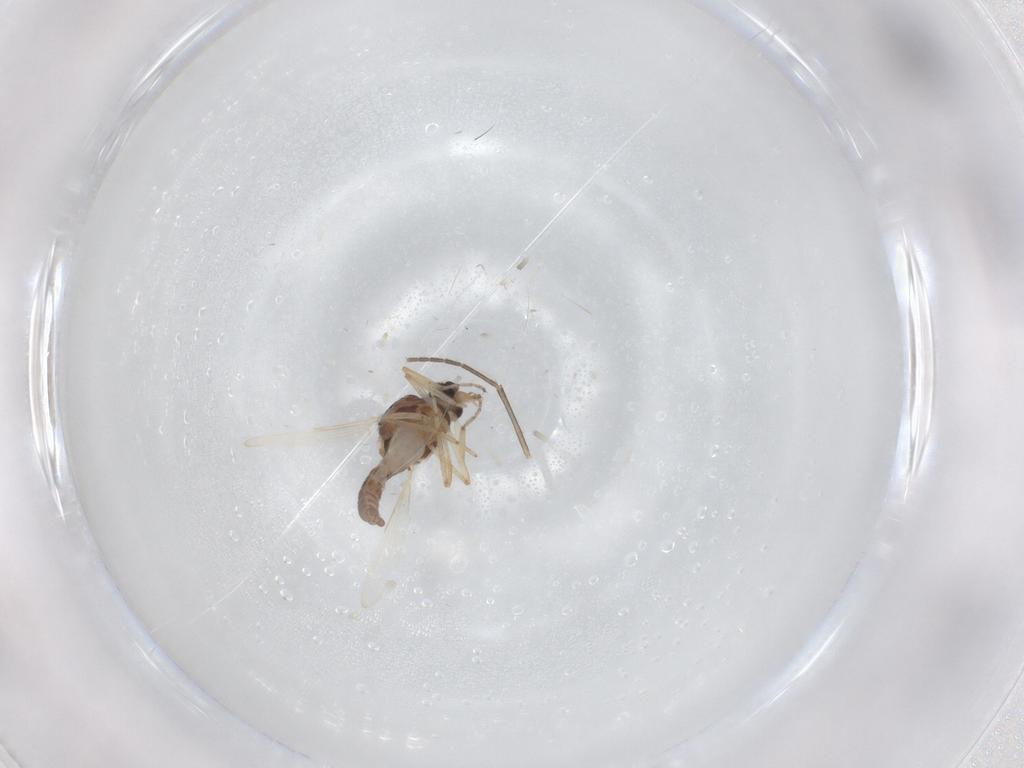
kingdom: Animalia
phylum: Arthropoda
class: Insecta
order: Diptera
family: Ceratopogonidae
